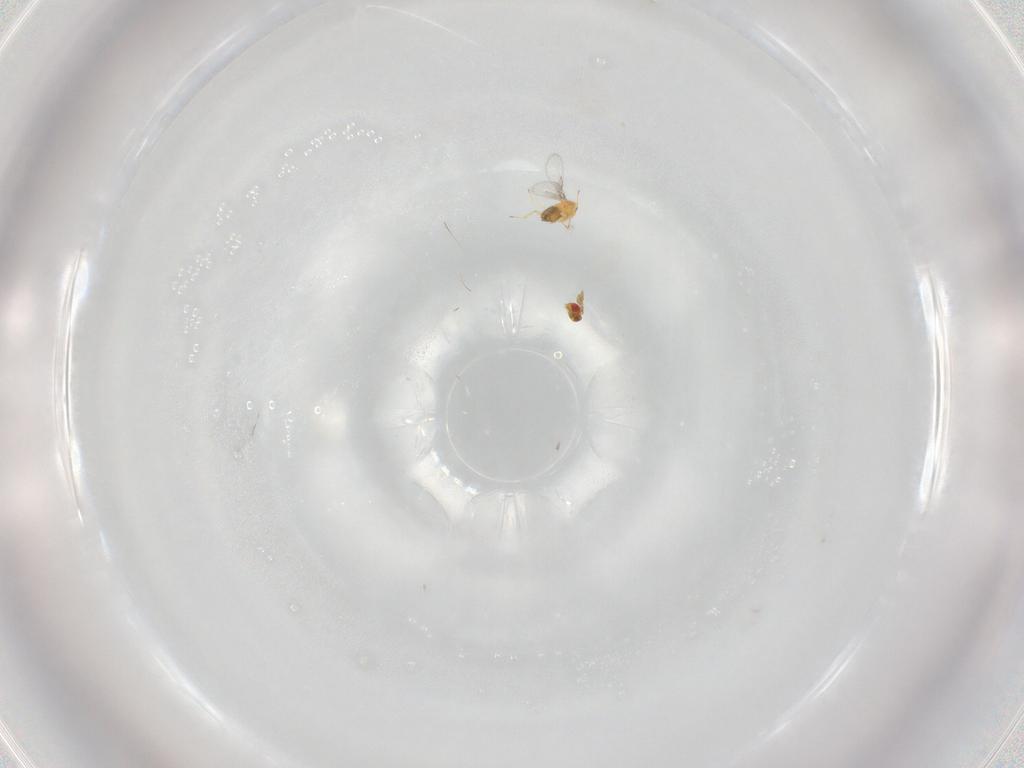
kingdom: Animalia
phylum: Arthropoda
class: Insecta
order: Hymenoptera
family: Trichogrammatidae
